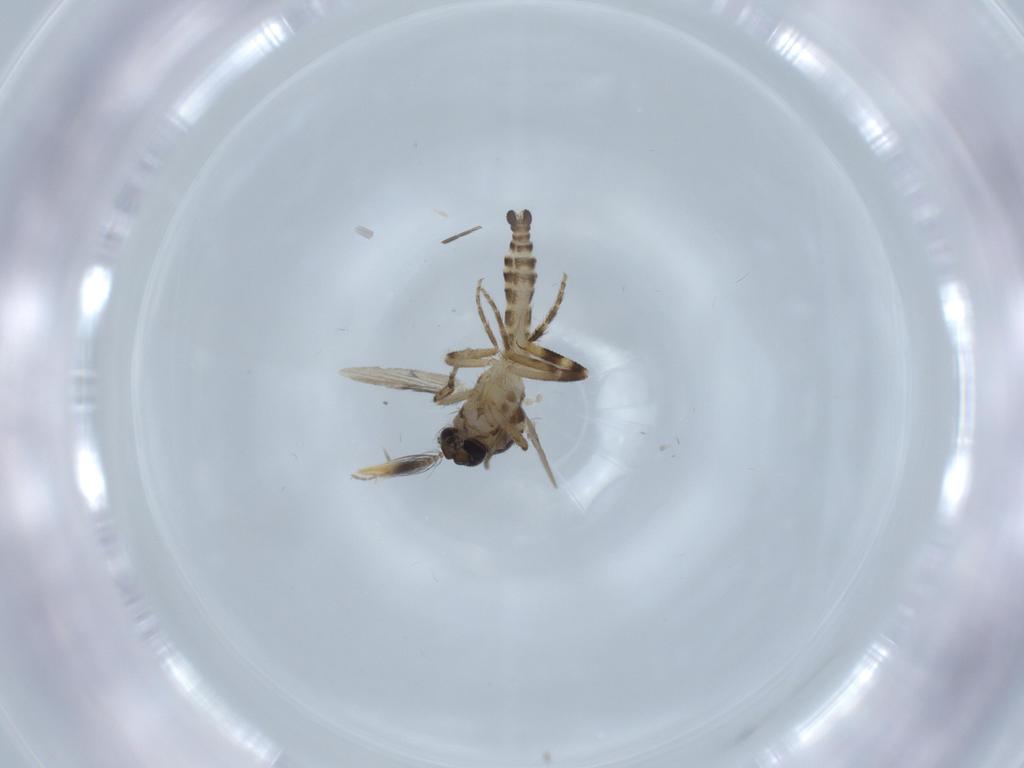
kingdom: Animalia
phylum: Arthropoda
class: Insecta
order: Diptera
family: Ceratopogonidae
